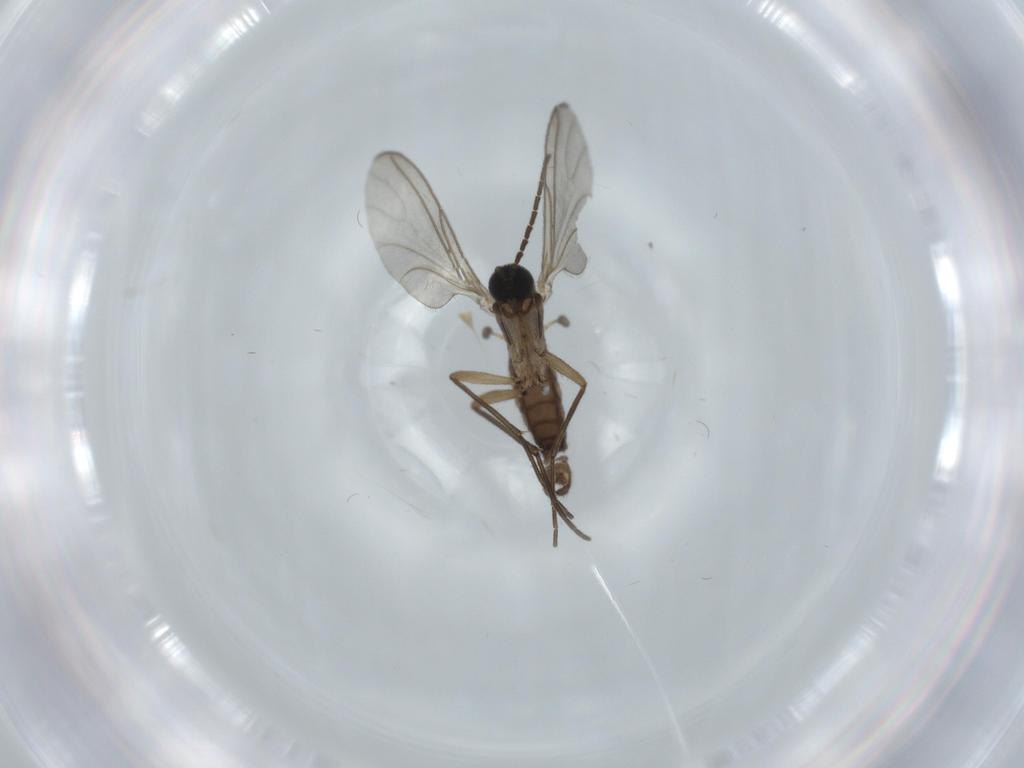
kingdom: Animalia
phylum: Arthropoda
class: Insecta
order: Diptera
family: Sciaridae
